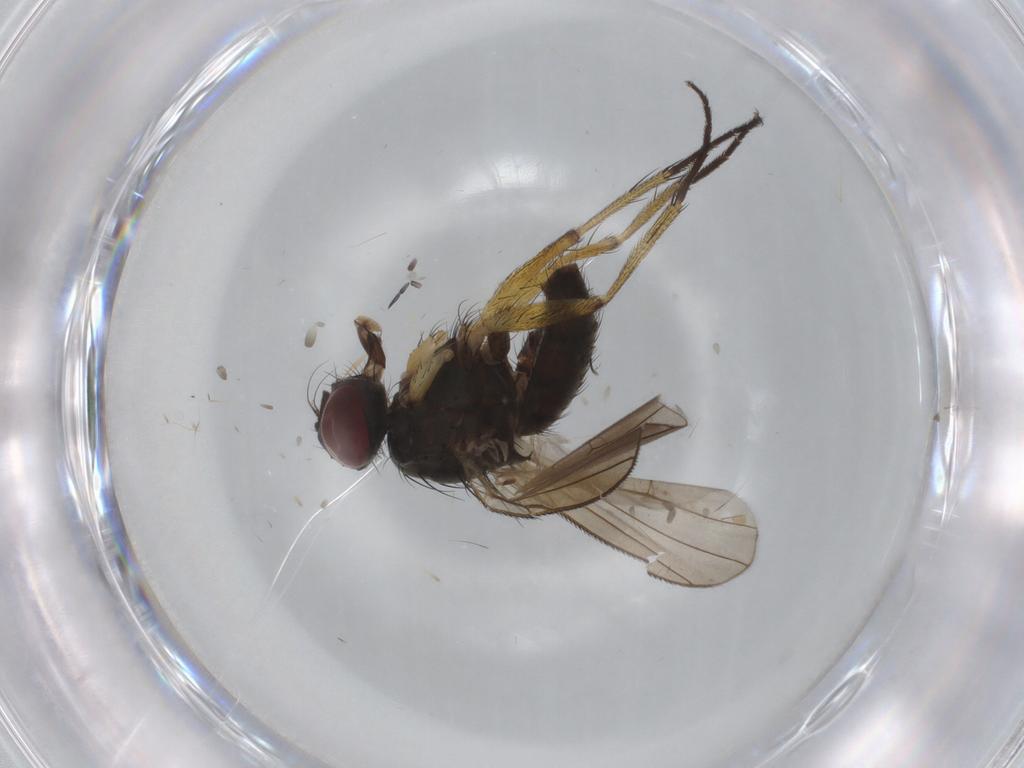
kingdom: Animalia
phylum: Arthropoda
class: Insecta
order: Diptera
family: Muscidae
